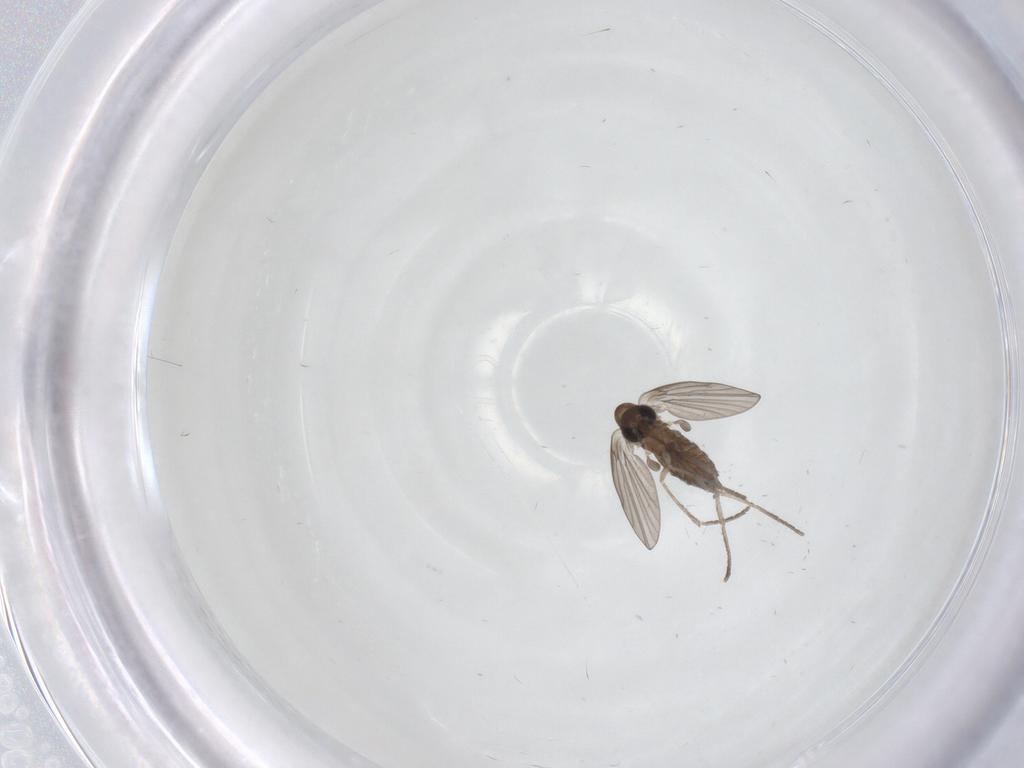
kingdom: Animalia
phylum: Arthropoda
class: Insecta
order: Diptera
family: Psychodidae
